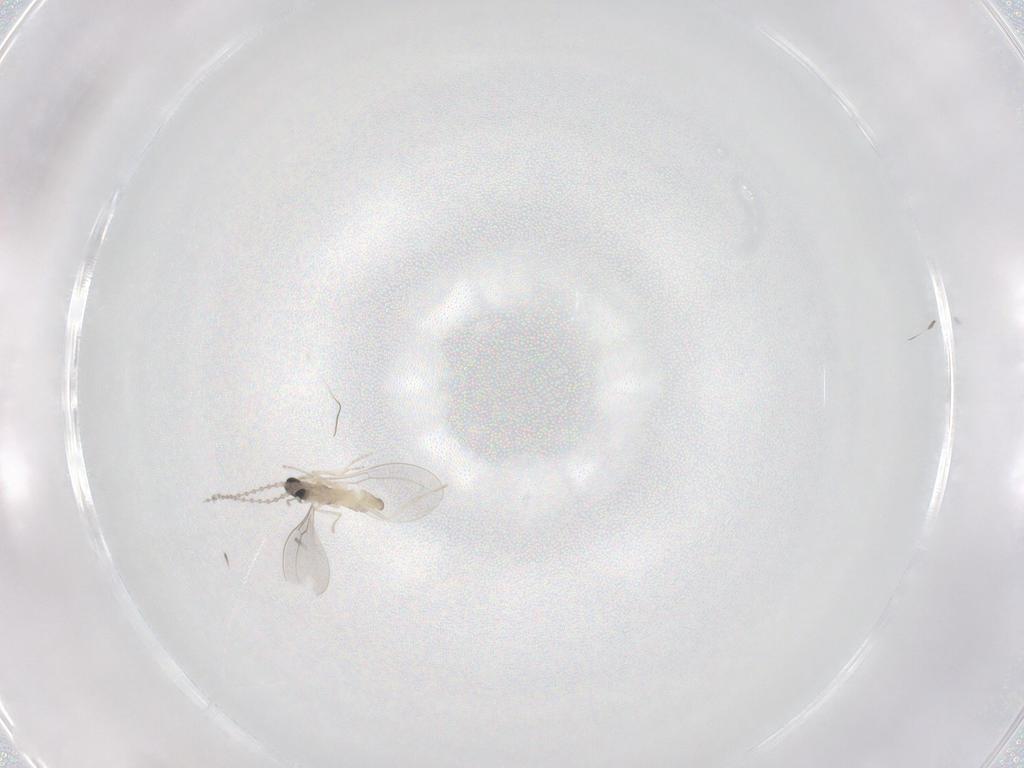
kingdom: Animalia
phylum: Arthropoda
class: Insecta
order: Diptera
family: Cecidomyiidae
